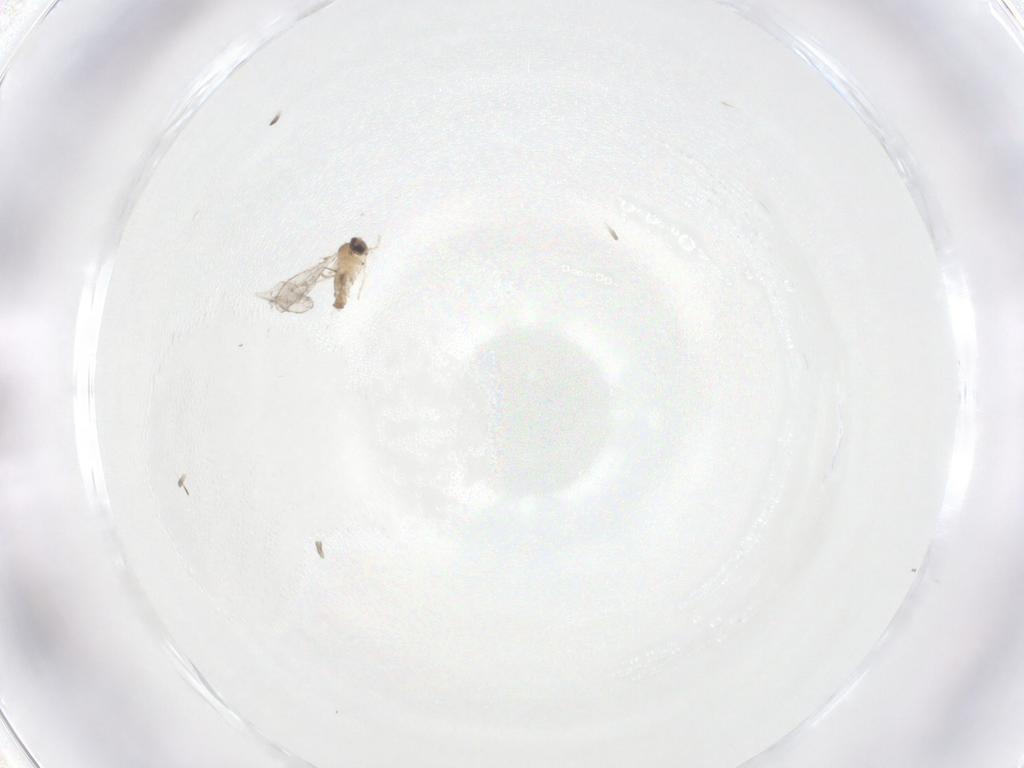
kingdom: Animalia
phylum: Arthropoda
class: Insecta
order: Diptera
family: Cecidomyiidae
